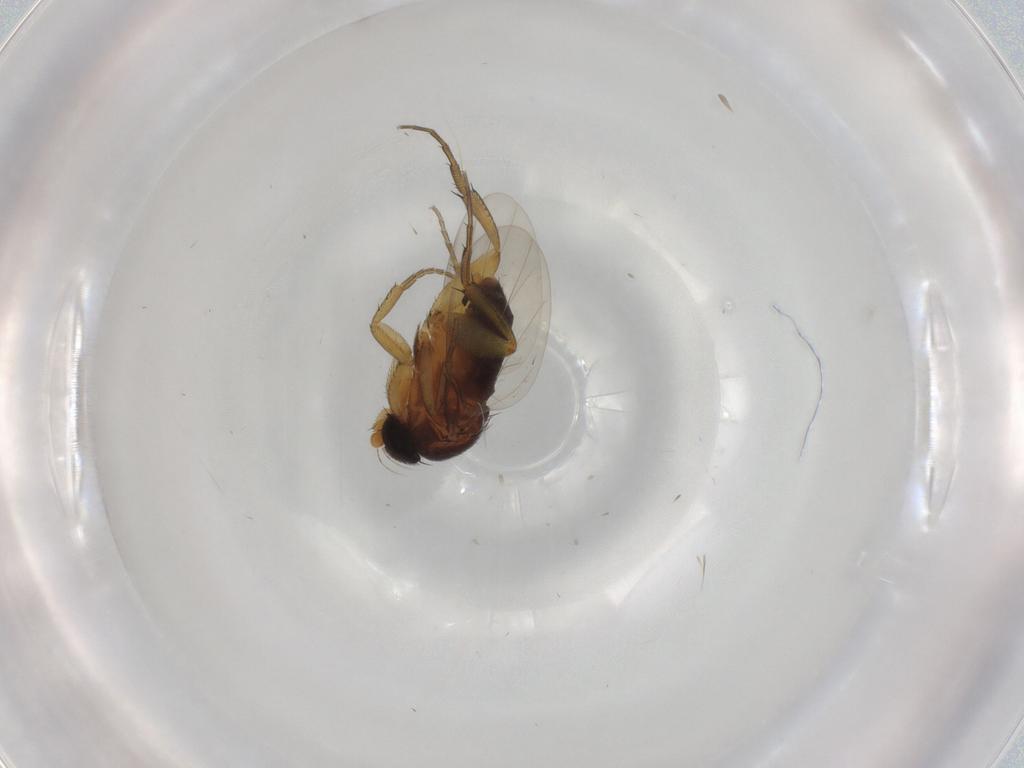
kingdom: Animalia
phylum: Arthropoda
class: Insecta
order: Diptera
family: Phoridae
